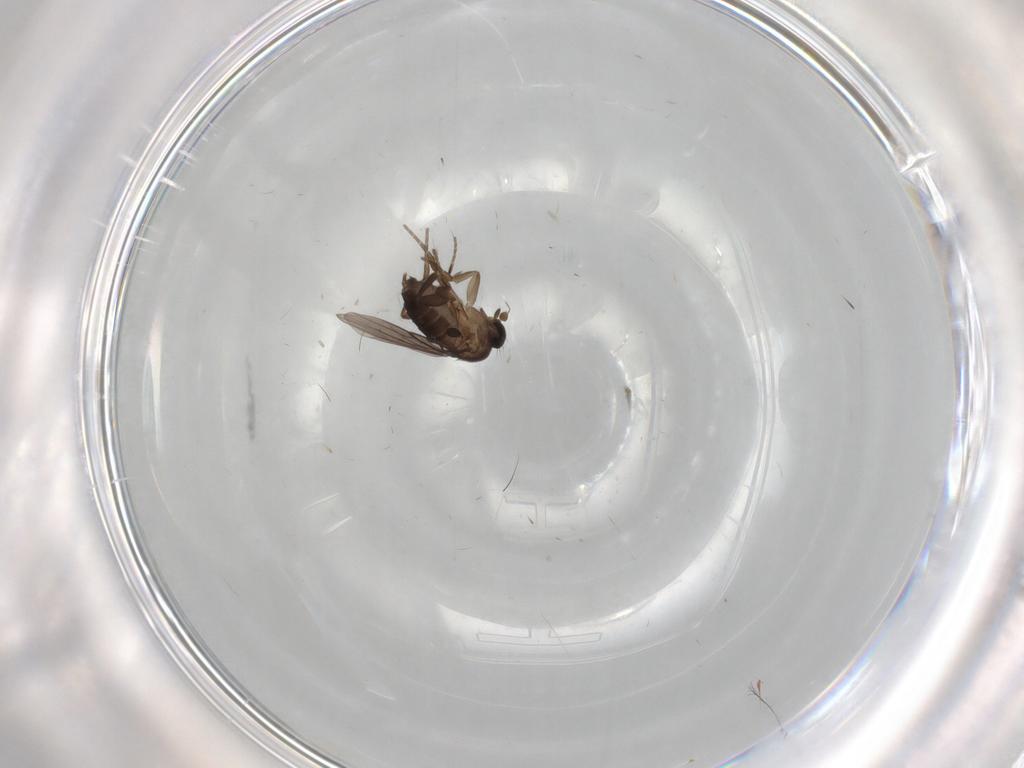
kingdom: Animalia
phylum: Arthropoda
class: Insecta
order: Diptera
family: Phoridae
